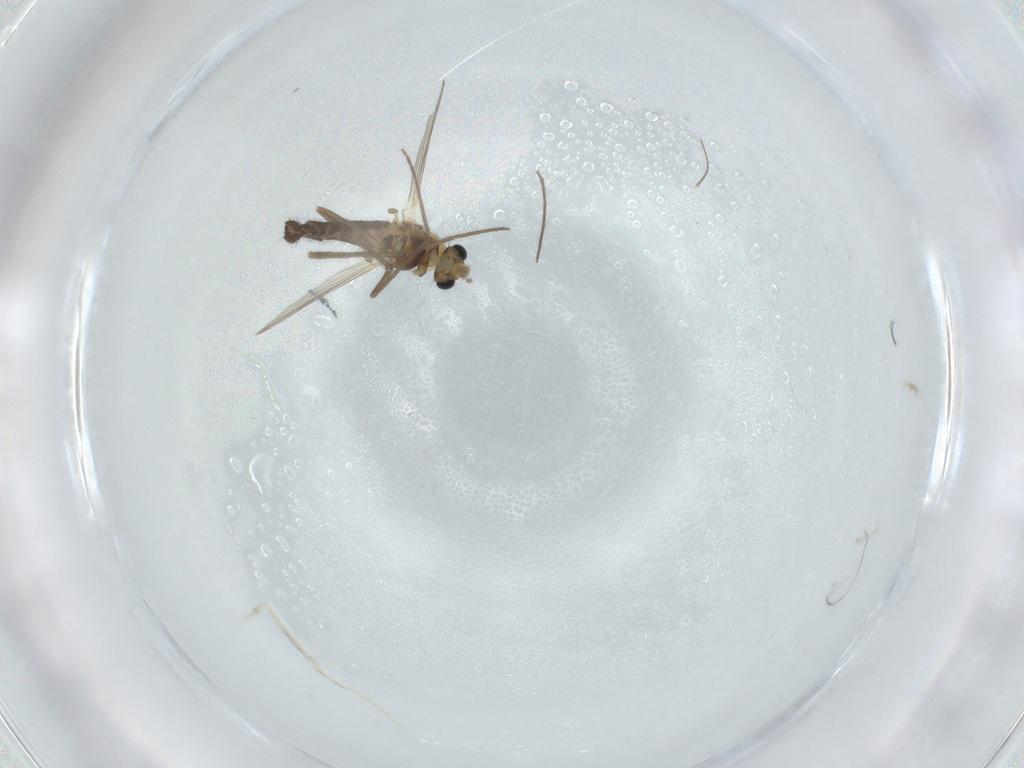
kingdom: Animalia
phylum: Arthropoda
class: Insecta
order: Diptera
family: Chironomidae
